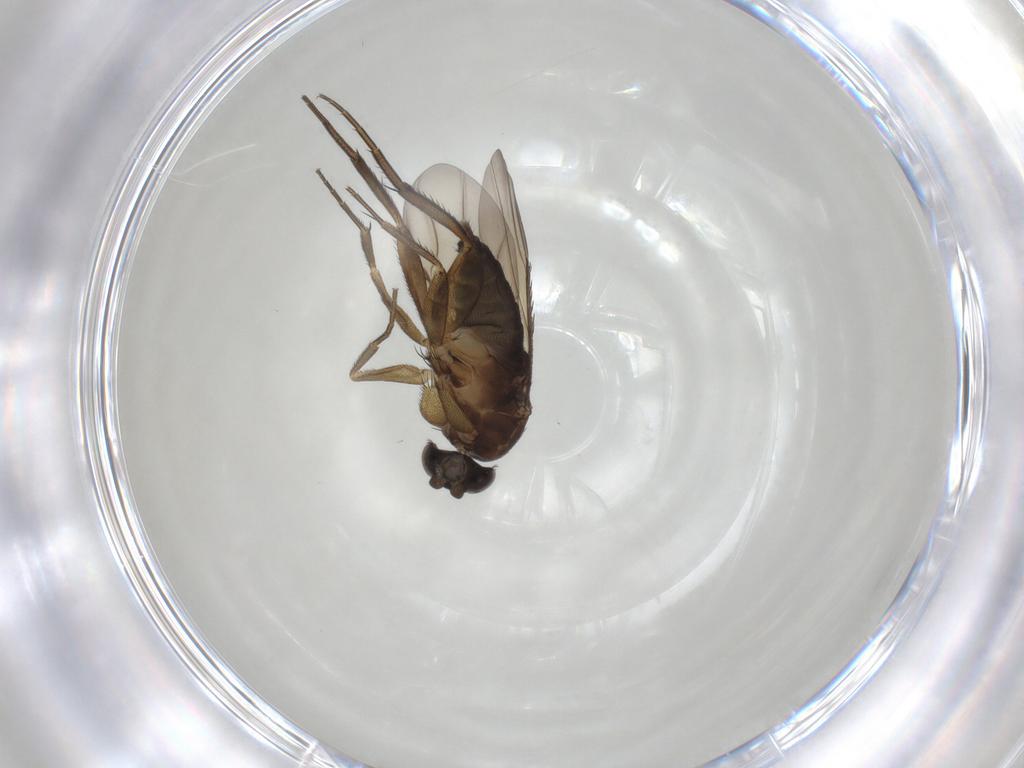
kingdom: Animalia
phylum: Arthropoda
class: Insecta
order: Diptera
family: Phoridae
